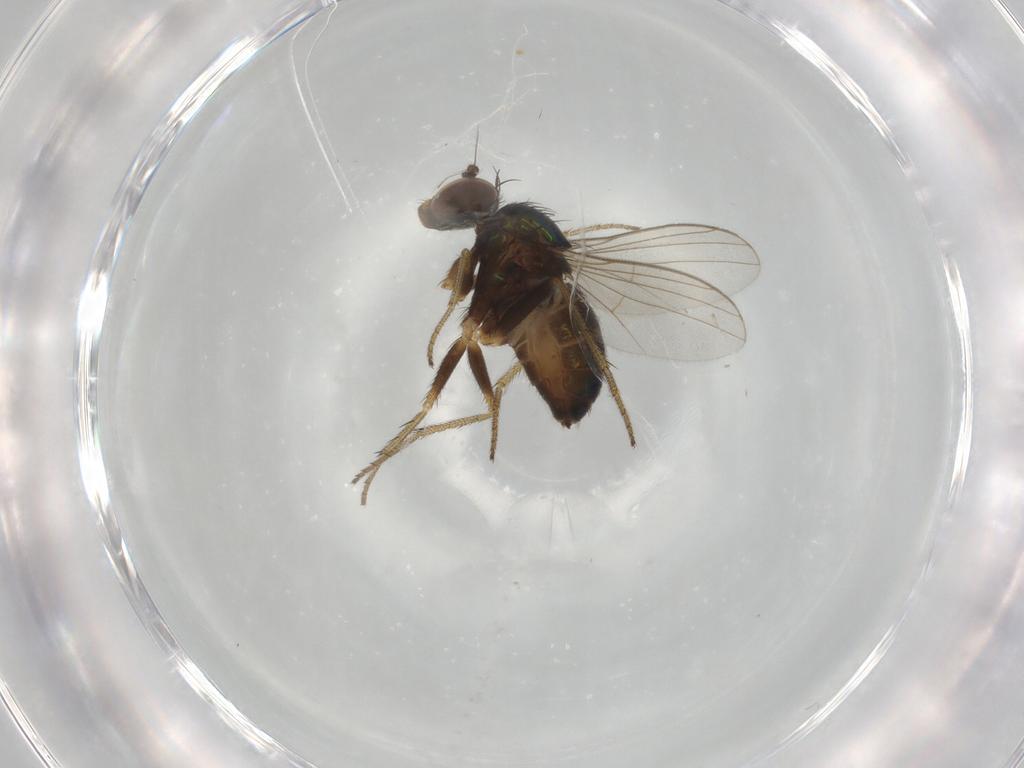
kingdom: Animalia
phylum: Arthropoda
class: Insecta
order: Diptera
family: Dolichopodidae
